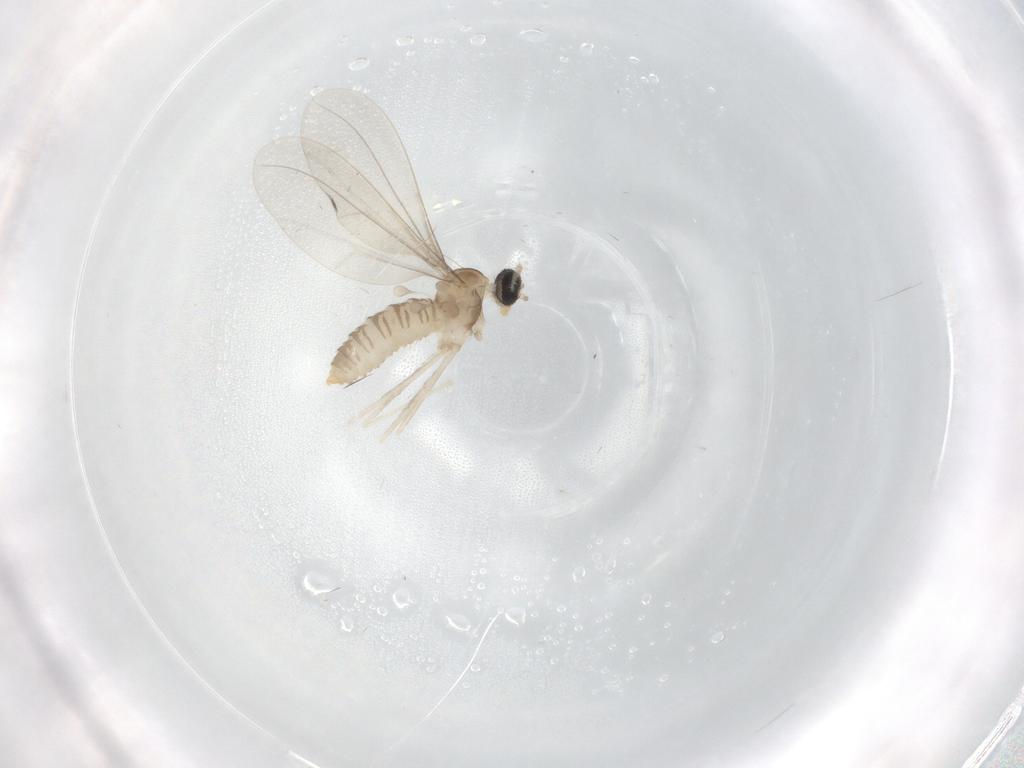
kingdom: Animalia
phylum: Arthropoda
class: Insecta
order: Diptera
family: Cecidomyiidae
